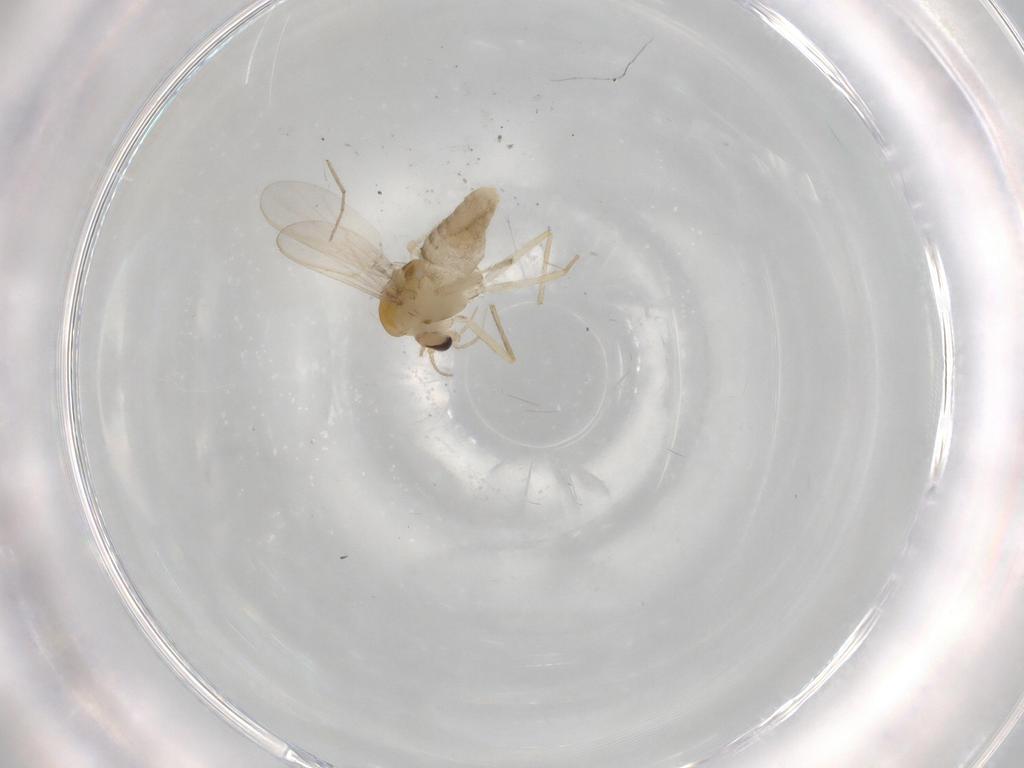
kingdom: Animalia
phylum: Arthropoda
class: Insecta
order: Diptera
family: Chironomidae
